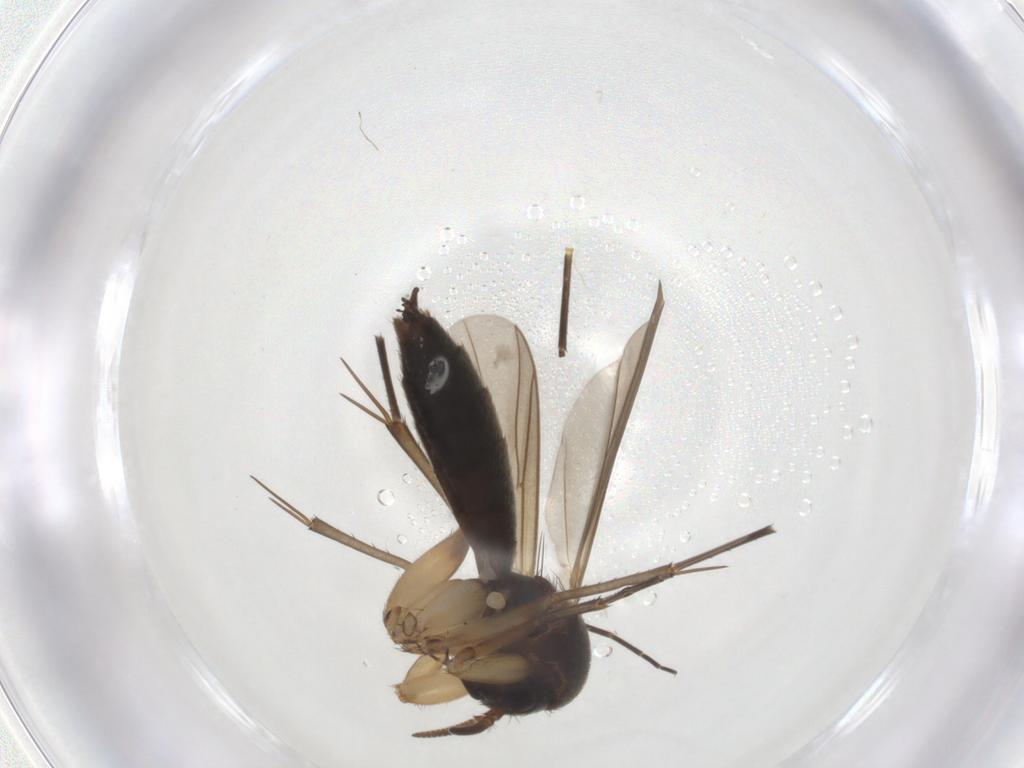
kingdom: Animalia
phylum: Arthropoda
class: Insecta
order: Diptera
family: Mycetophilidae
